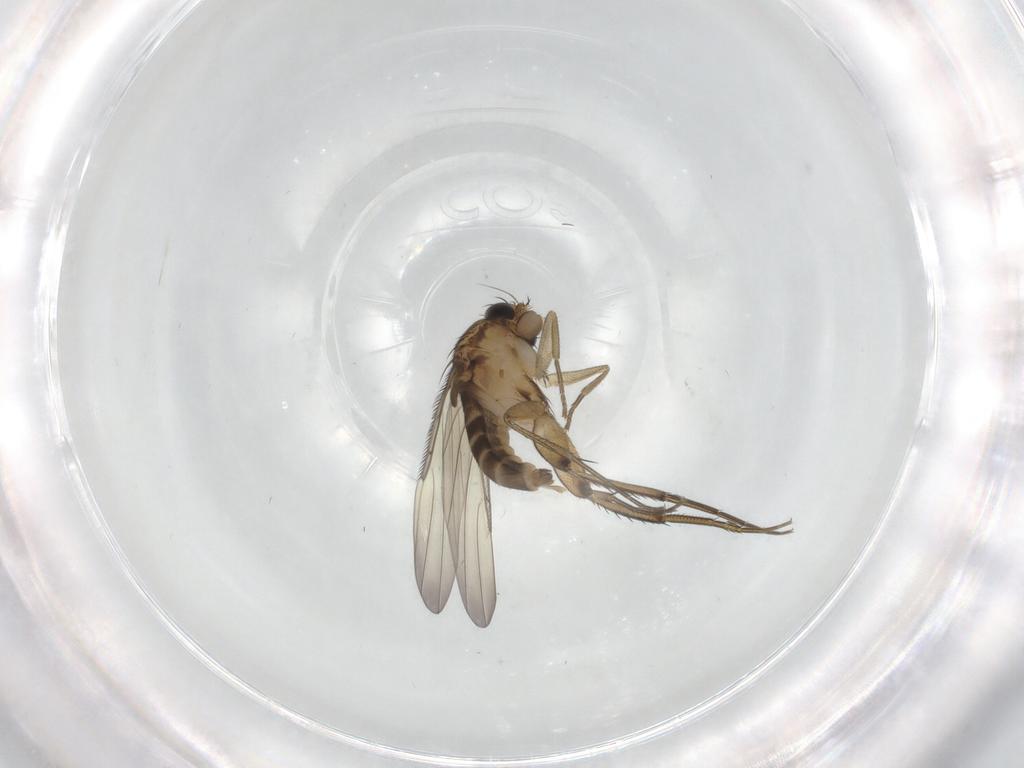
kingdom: Animalia
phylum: Arthropoda
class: Insecta
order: Diptera
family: Phoridae
